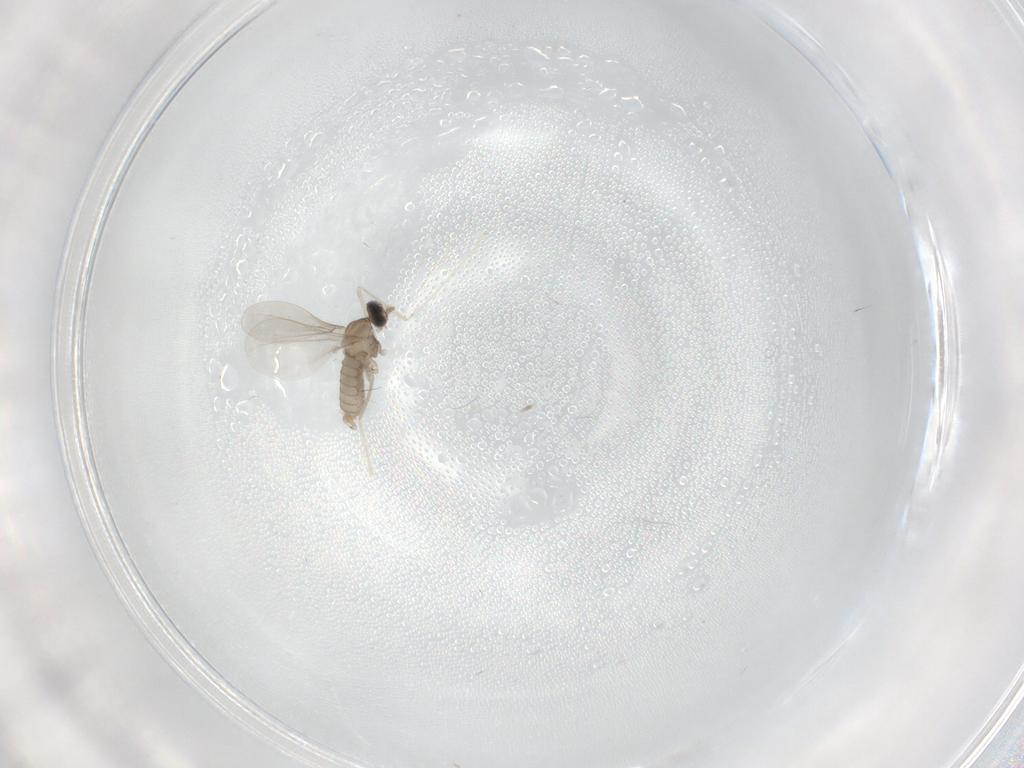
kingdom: Animalia
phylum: Arthropoda
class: Insecta
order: Diptera
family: Cecidomyiidae
